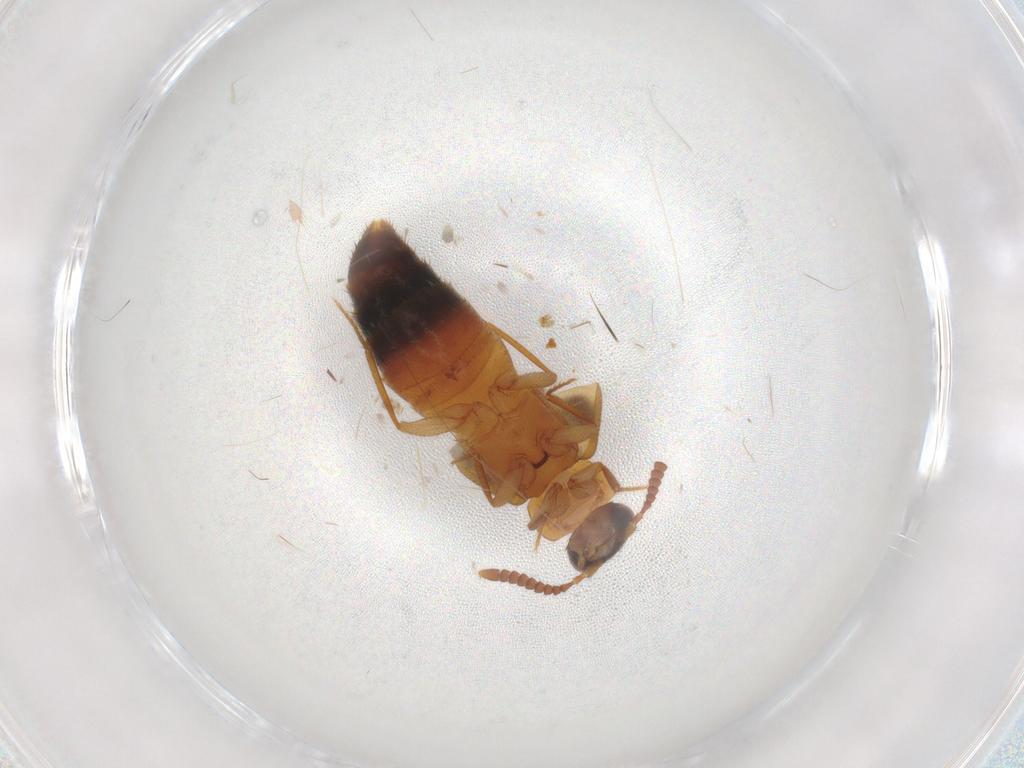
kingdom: Animalia
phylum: Arthropoda
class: Insecta
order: Coleoptera
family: Staphylinidae
